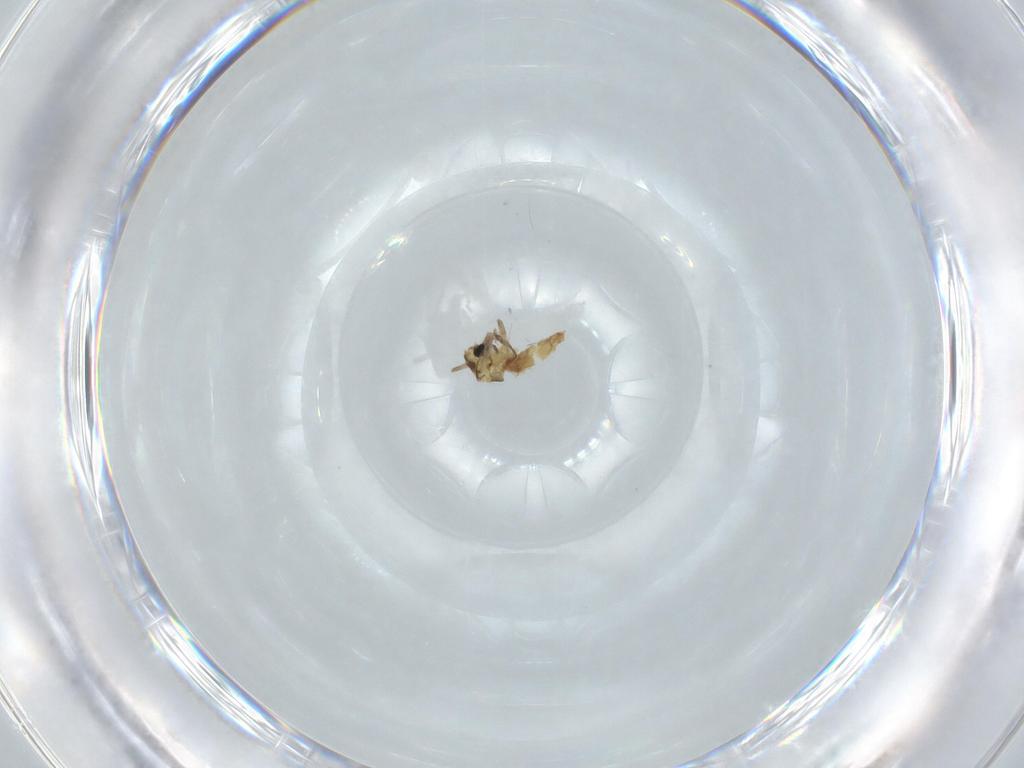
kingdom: Animalia
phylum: Arthropoda
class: Insecta
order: Diptera
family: Chironomidae
